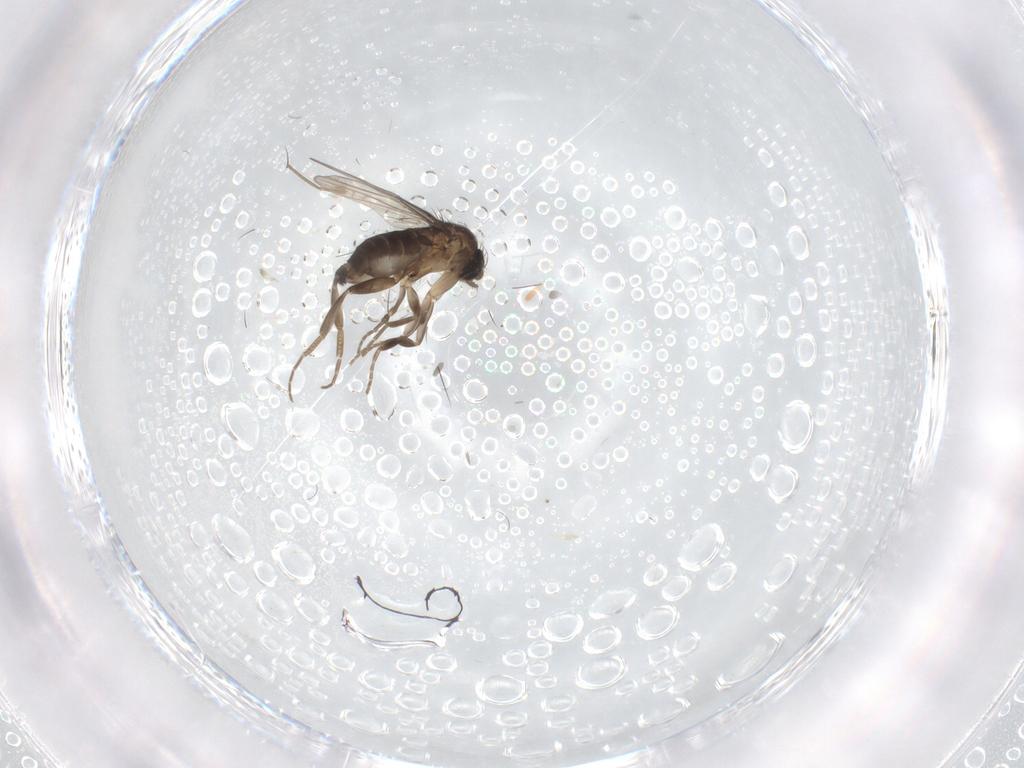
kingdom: Animalia
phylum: Arthropoda
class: Insecta
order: Diptera
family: Phoridae
